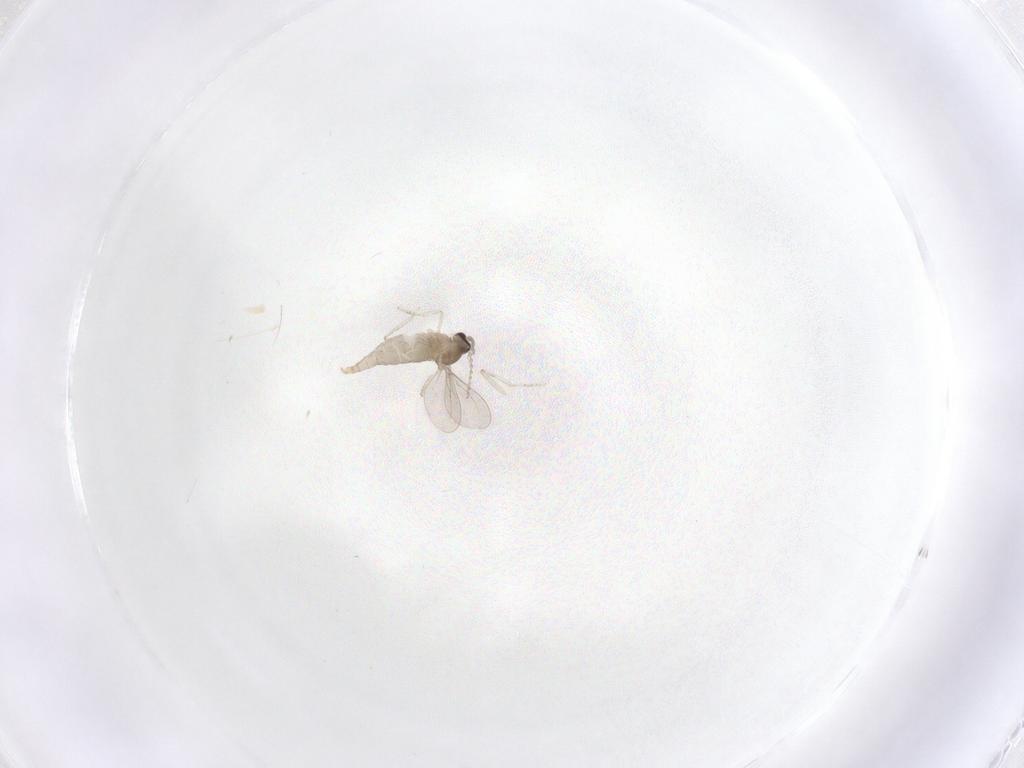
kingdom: Animalia
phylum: Arthropoda
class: Insecta
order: Diptera
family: Cecidomyiidae
